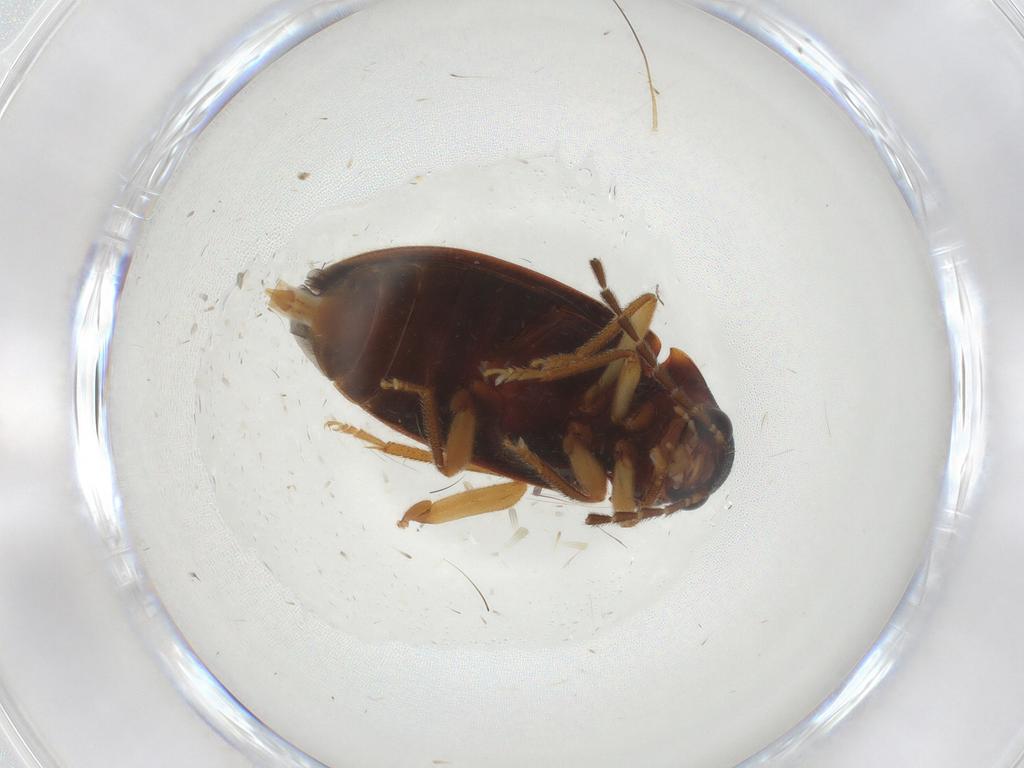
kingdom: Animalia
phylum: Arthropoda
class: Insecta
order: Coleoptera
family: Ptilodactylidae
